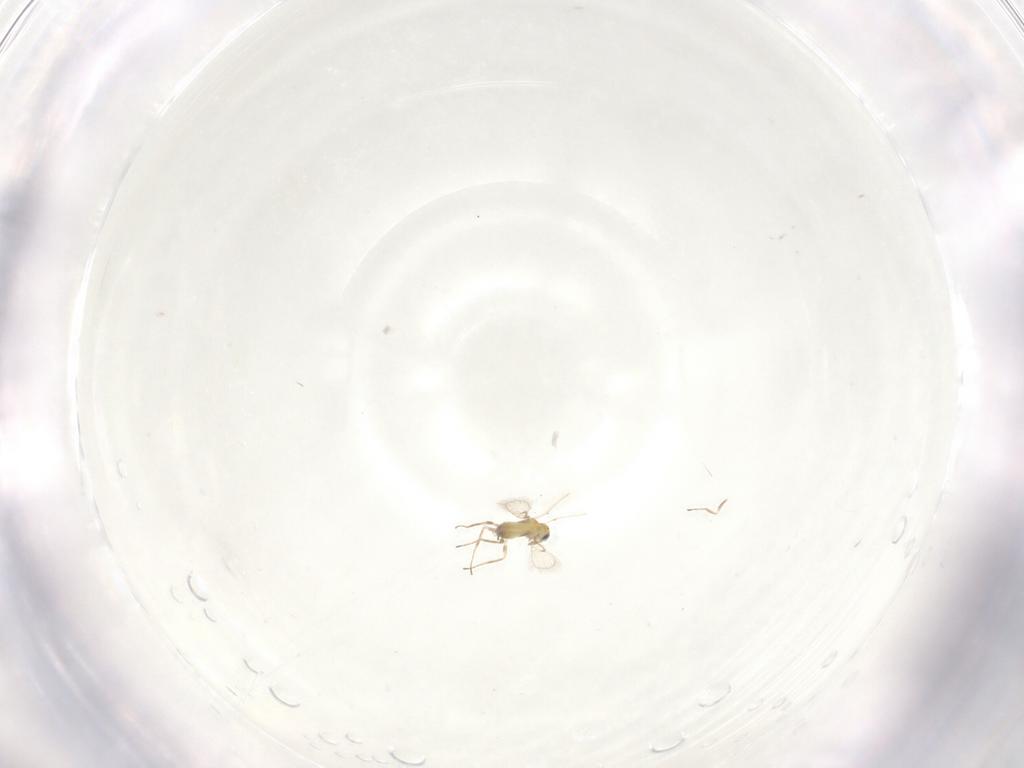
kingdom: Animalia
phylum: Arthropoda
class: Insecta
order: Hymenoptera
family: Trichogrammatidae
